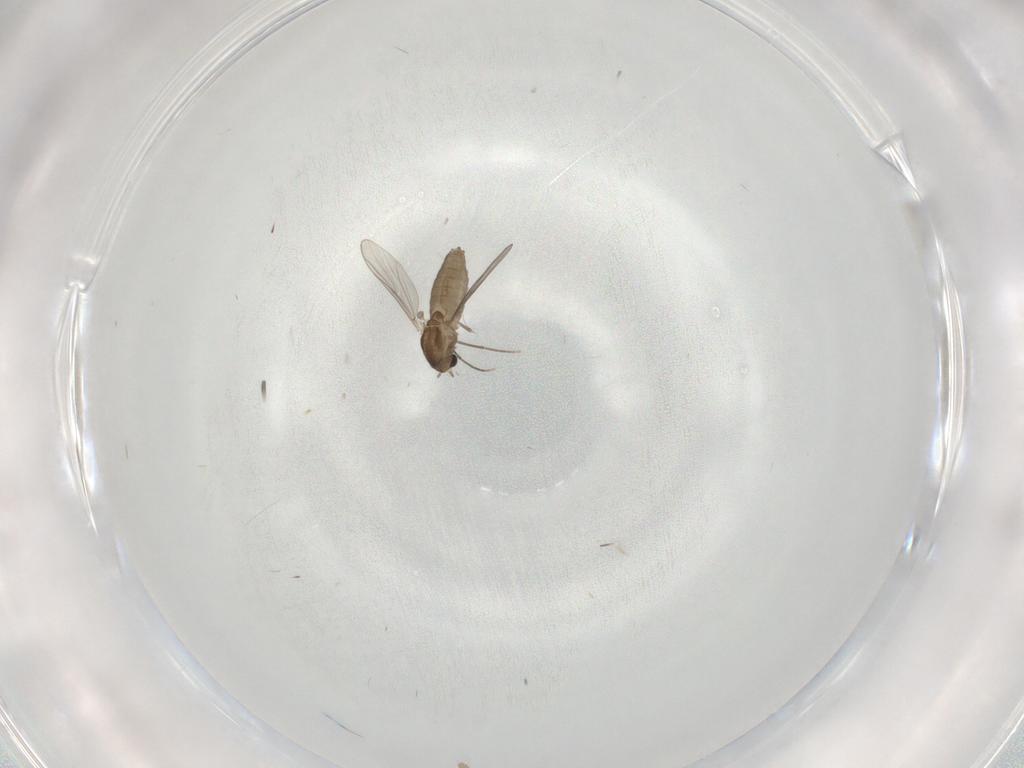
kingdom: Animalia
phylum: Arthropoda
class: Insecta
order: Diptera
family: Chironomidae
